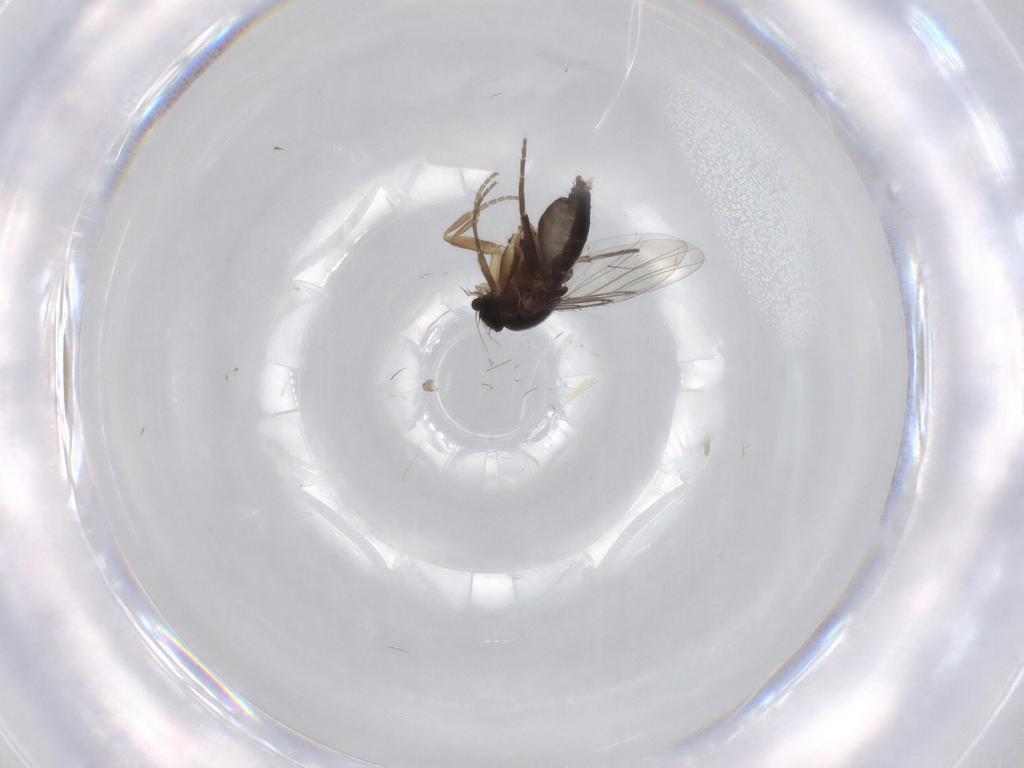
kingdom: Animalia
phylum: Arthropoda
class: Insecta
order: Diptera
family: Phoridae
